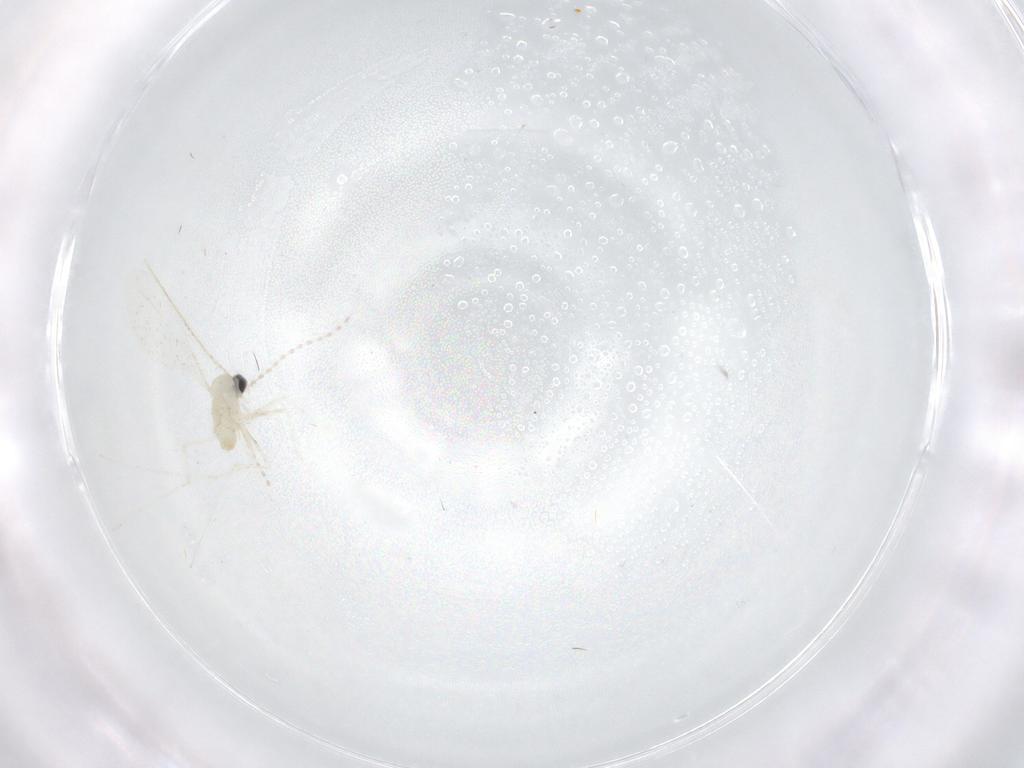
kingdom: Animalia
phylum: Arthropoda
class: Insecta
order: Diptera
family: Cecidomyiidae
